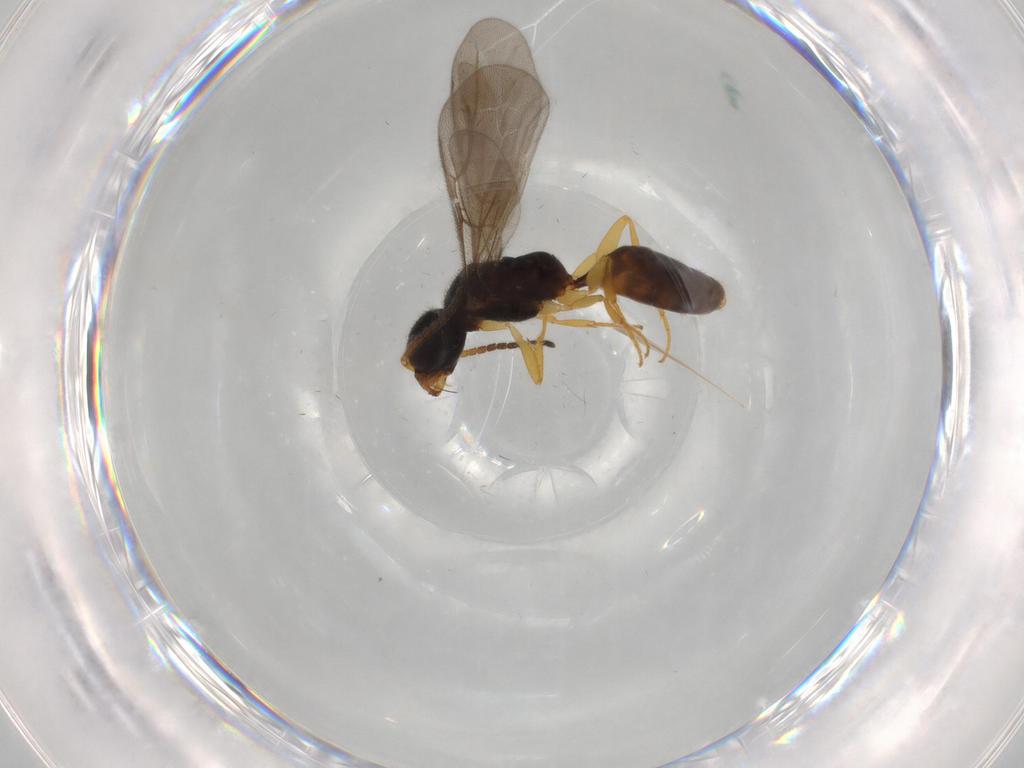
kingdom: Animalia
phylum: Arthropoda
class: Insecta
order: Hymenoptera
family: Bethylidae
